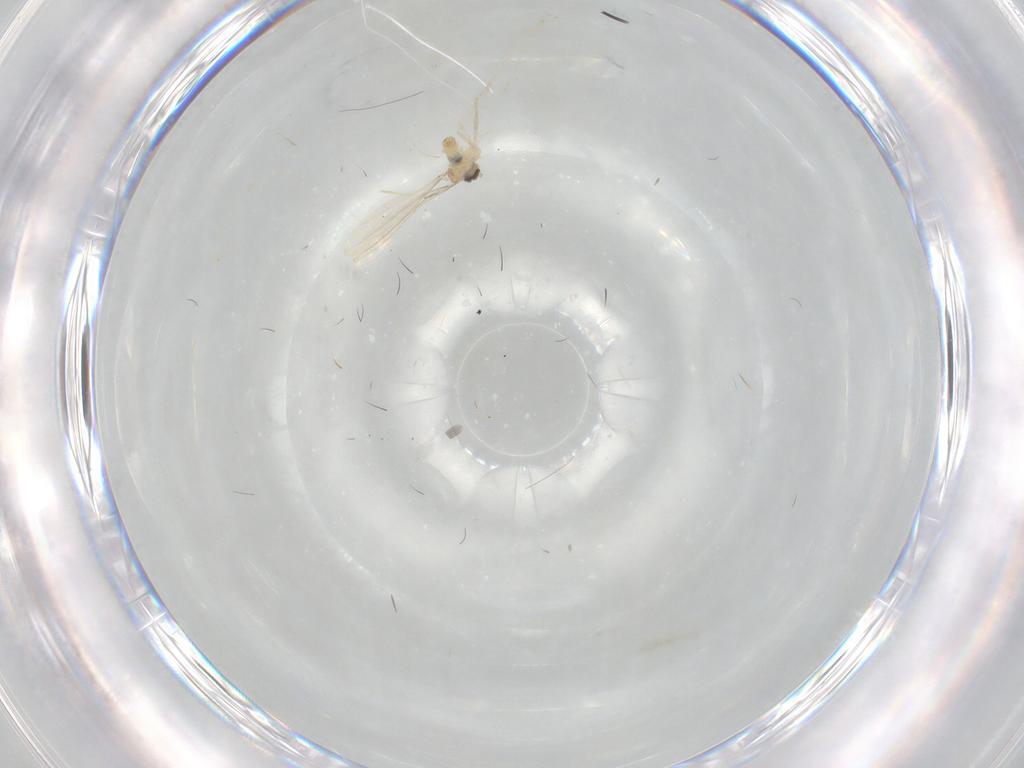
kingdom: Animalia
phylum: Arthropoda
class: Insecta
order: Diptera
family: Cecidomyiidae
